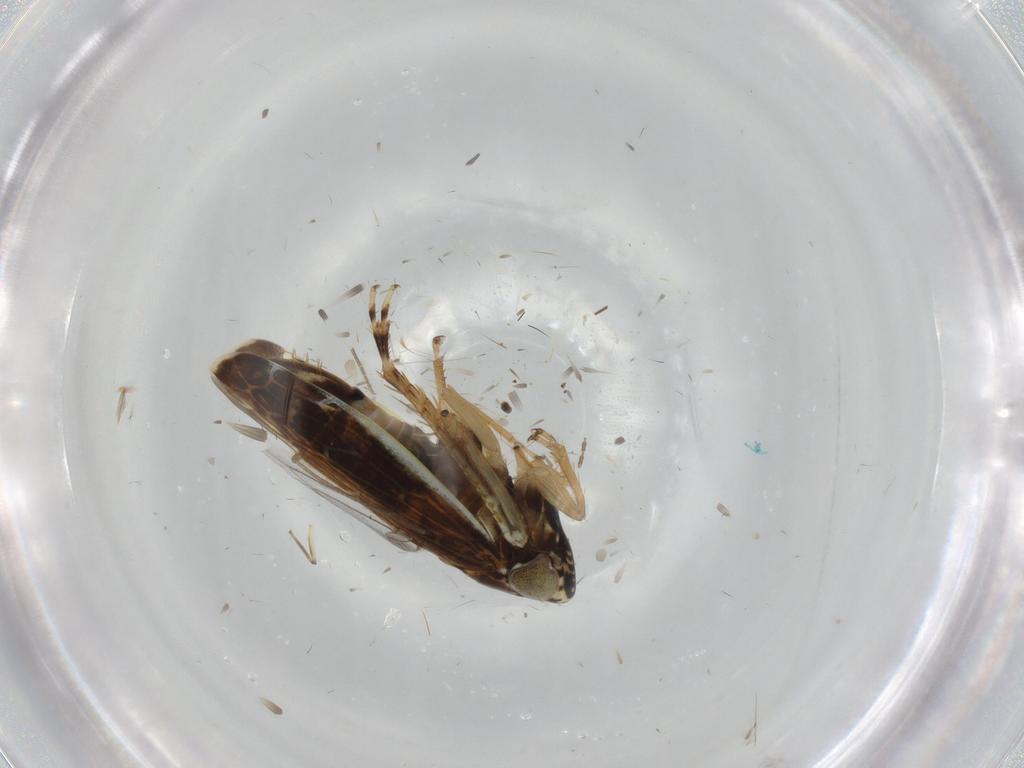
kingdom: Animalia
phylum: Arthropoda
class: Insecta
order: Hemiptera
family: Cicadellidae
